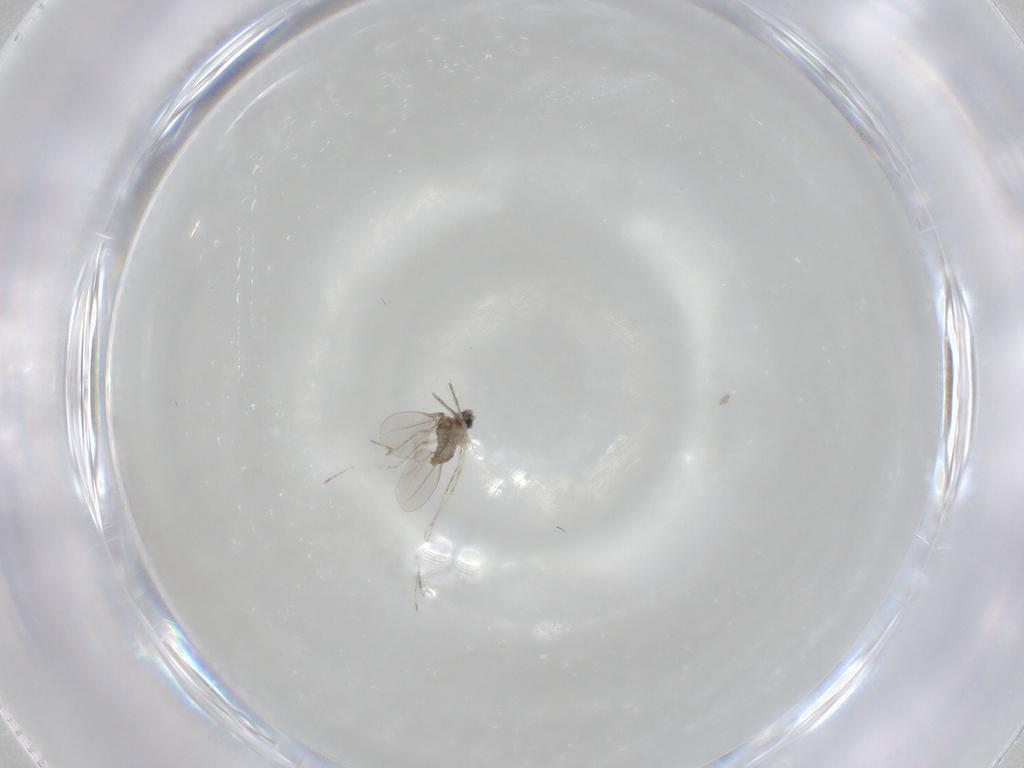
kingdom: Animalia
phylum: Arthropoda
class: Insecta
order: Diptera
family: Cecidomyiidae
